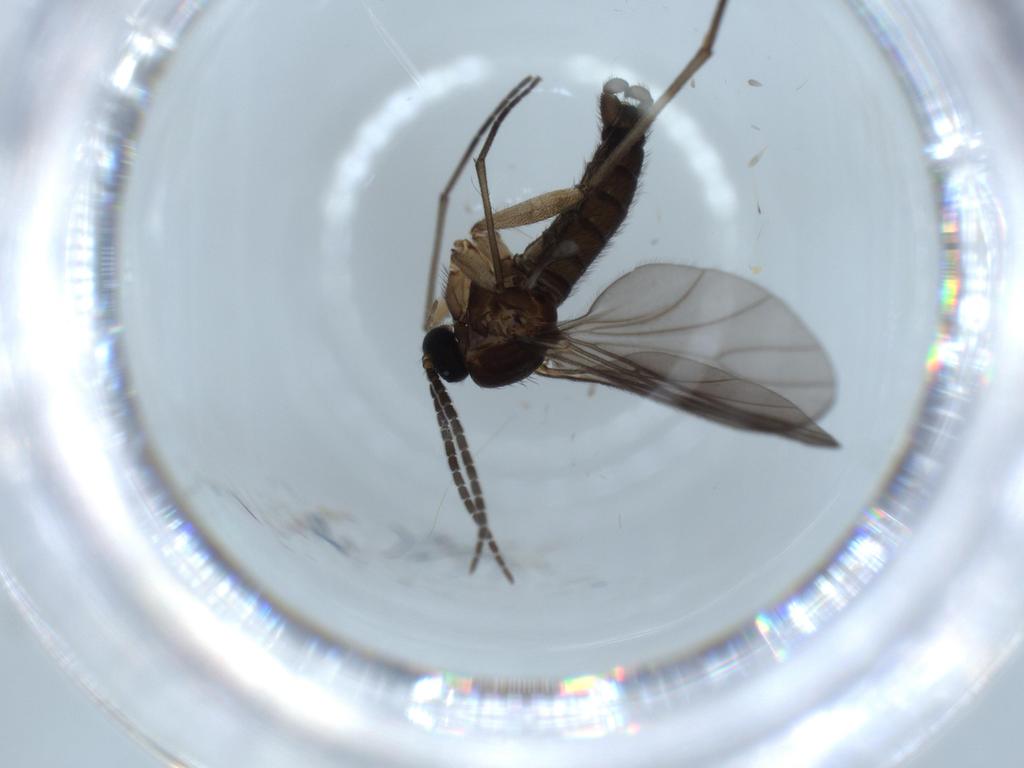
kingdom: Animalia
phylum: Arthropoda
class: Insecta
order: Diptera
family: Sciaridae
